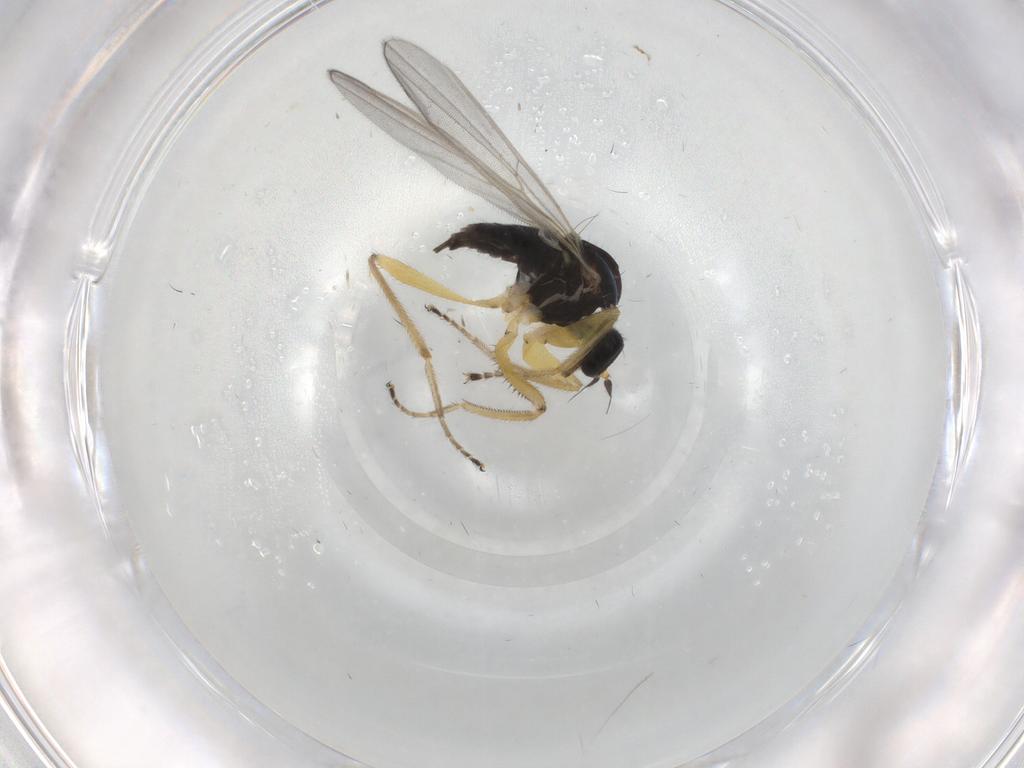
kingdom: Animalia
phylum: Arthropoda
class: Insecta
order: Diptera
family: Hybotidae
